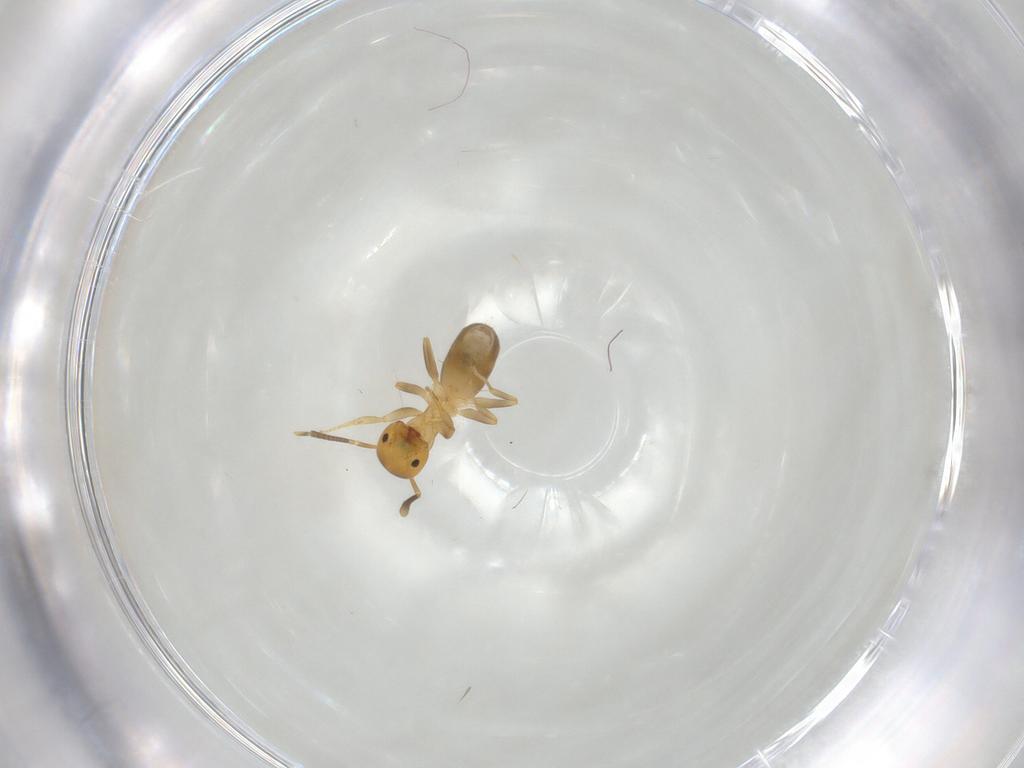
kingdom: Animalia
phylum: Arthropoda
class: Insecta
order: Hymenoptera
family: Formicidae
